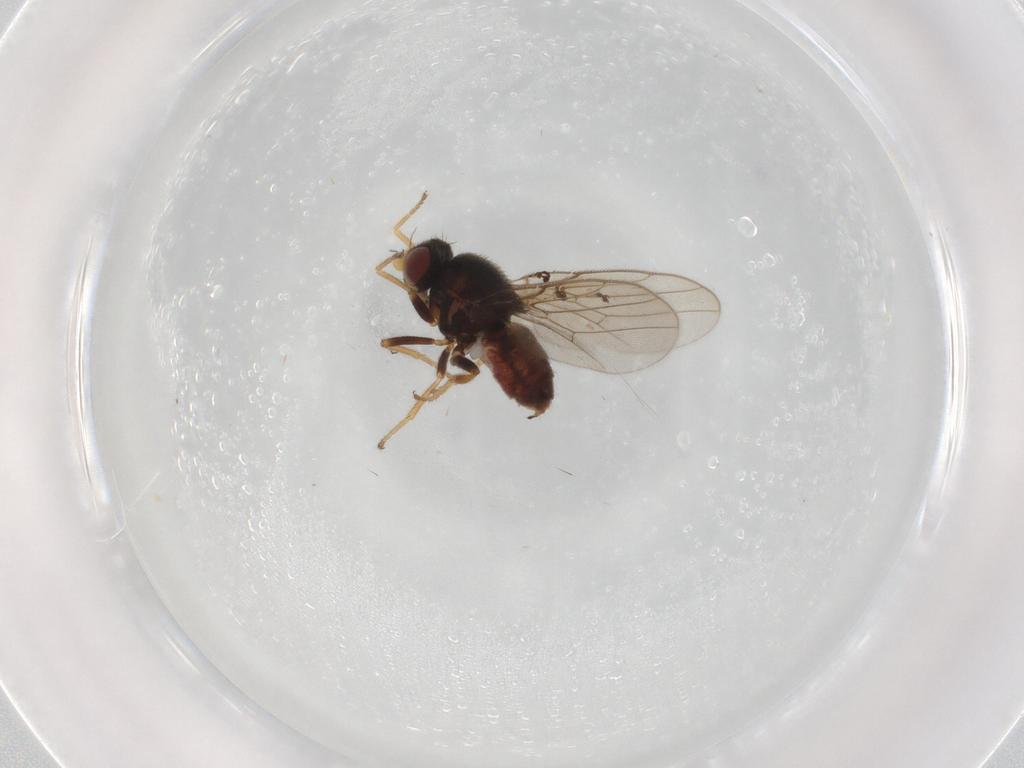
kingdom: Animalia
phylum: Arthropoda
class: Insecta
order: Diptera
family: Chloropidae
